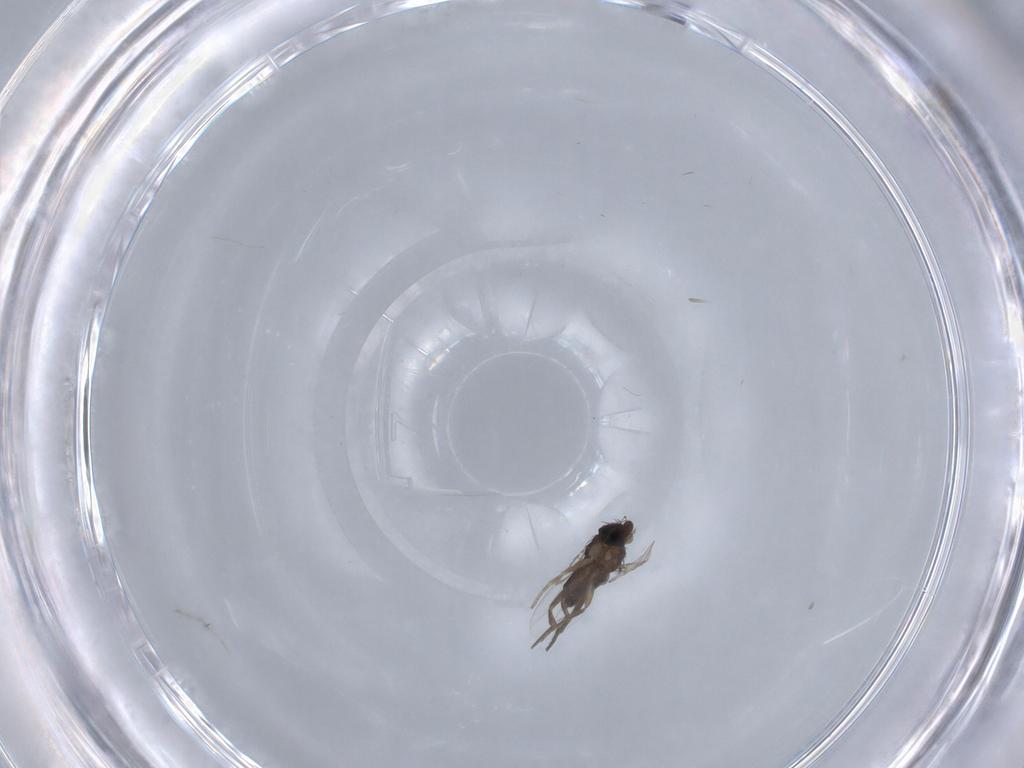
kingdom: Animalia
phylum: Arthropoda
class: Insecta
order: Diptera
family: Phoridae
